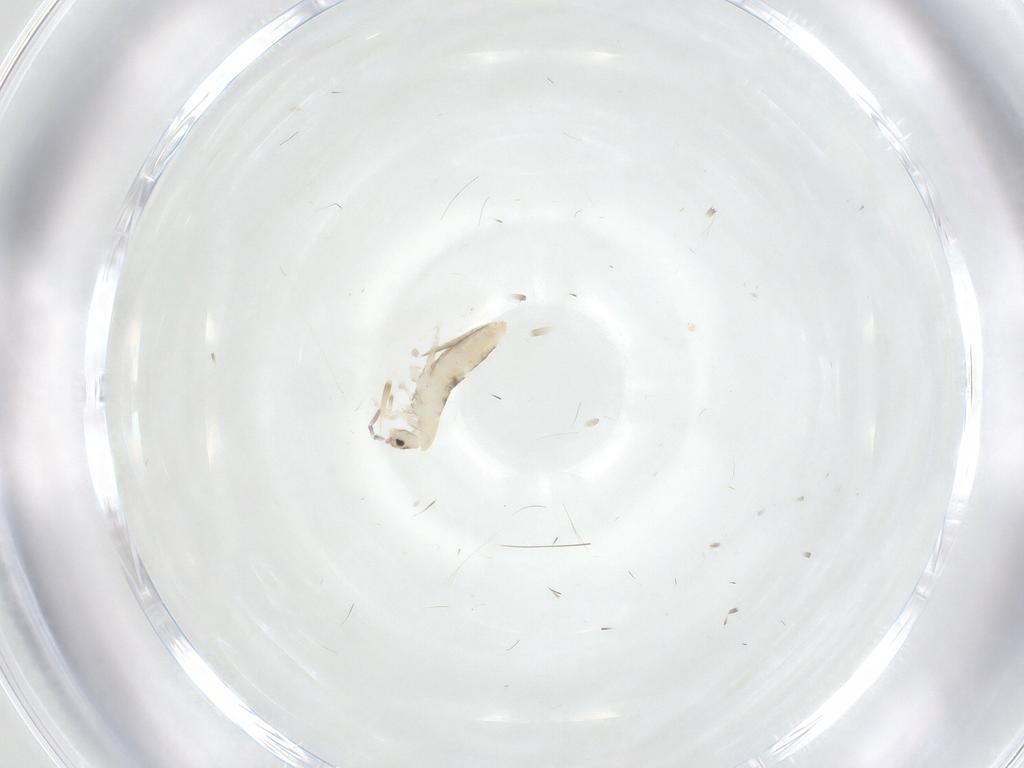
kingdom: Animalia
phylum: Arthropoda
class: Collembola
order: Entomobryomorpha
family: Entomobryidae
